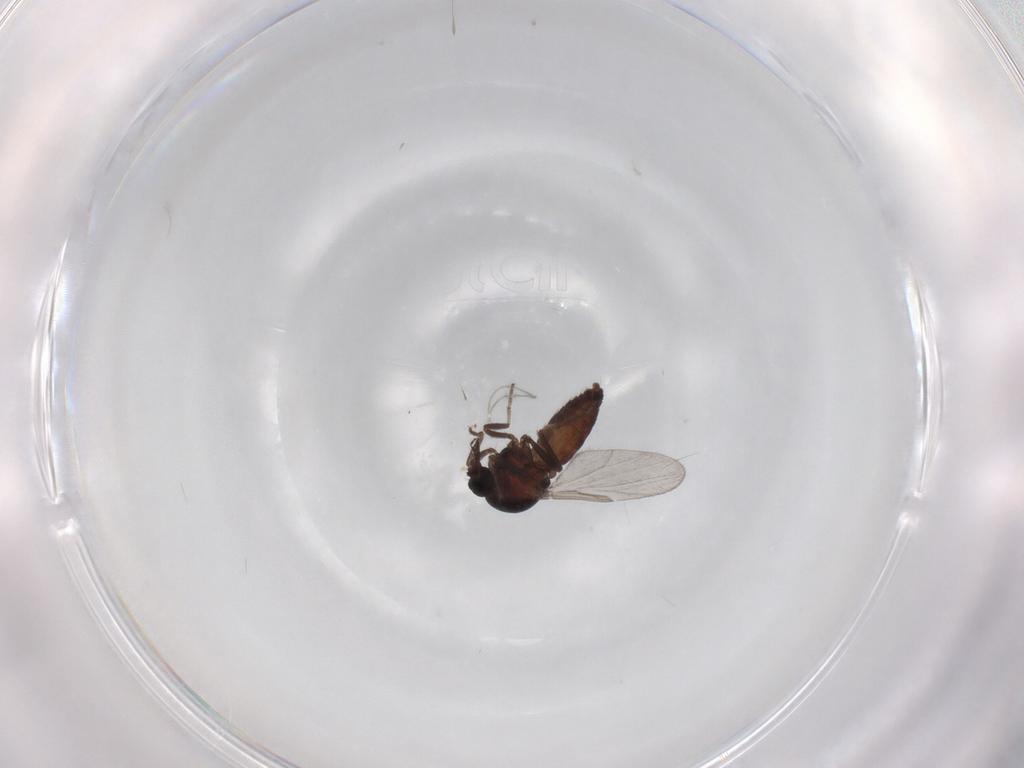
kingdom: Animalia
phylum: Arthropoda
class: Insecta
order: Diptera
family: Ceratopogonidae
